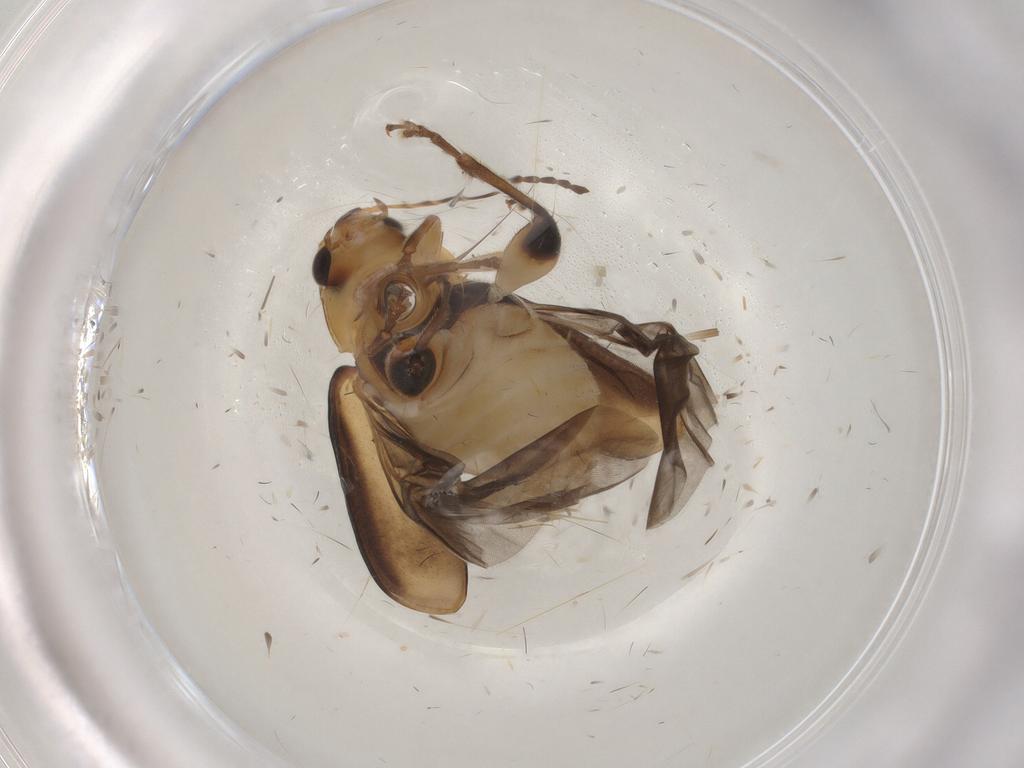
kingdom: Animalia
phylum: Arthropoda
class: Insecta
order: Coleoptera
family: Chrysomelidae
